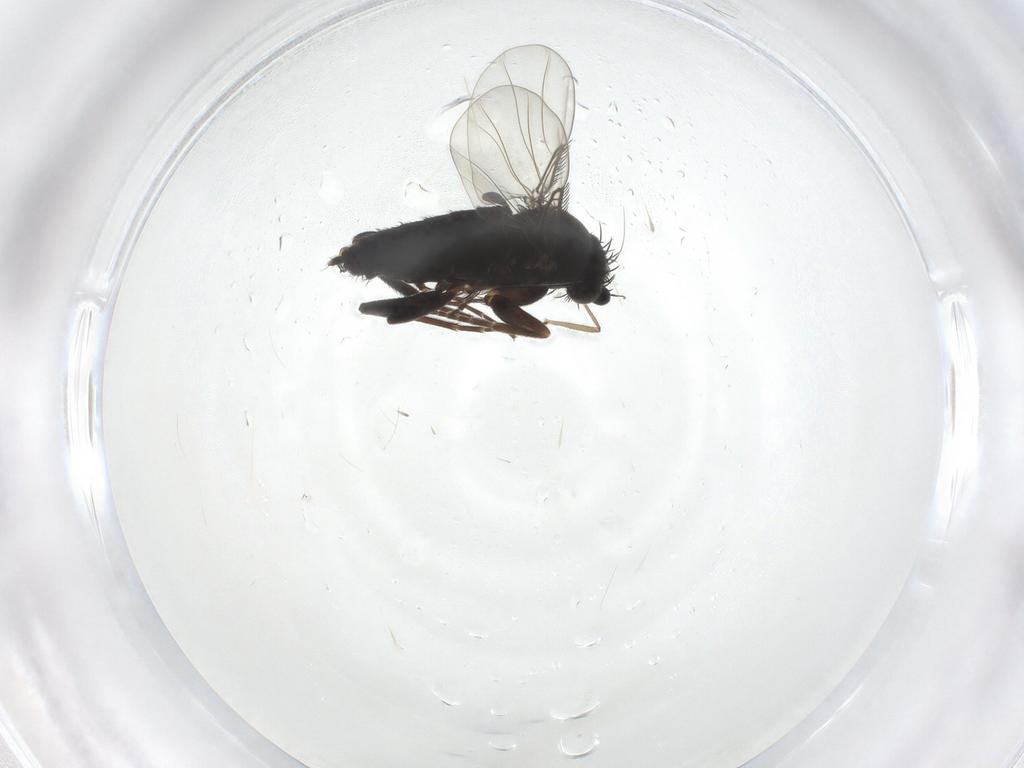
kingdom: Animalia
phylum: Arthropoda
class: Insecta
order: Diptera
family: Phoridae
